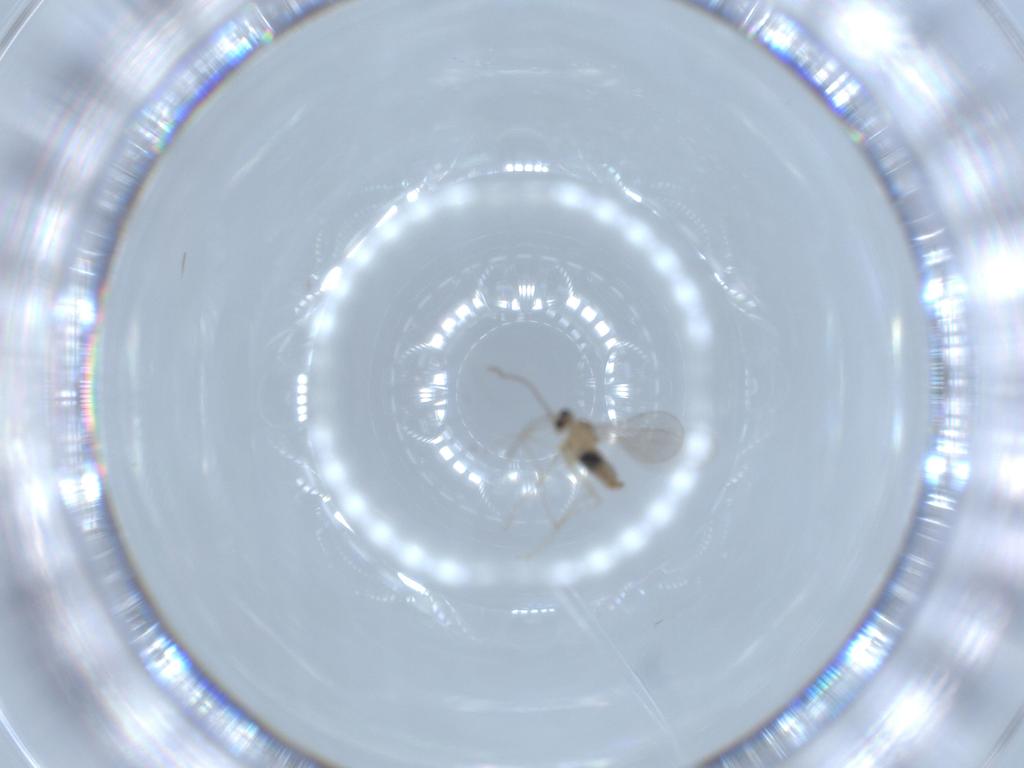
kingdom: Animalia
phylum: Arthropoda
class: Insecta
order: Diptera
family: Cecidomyiidae
